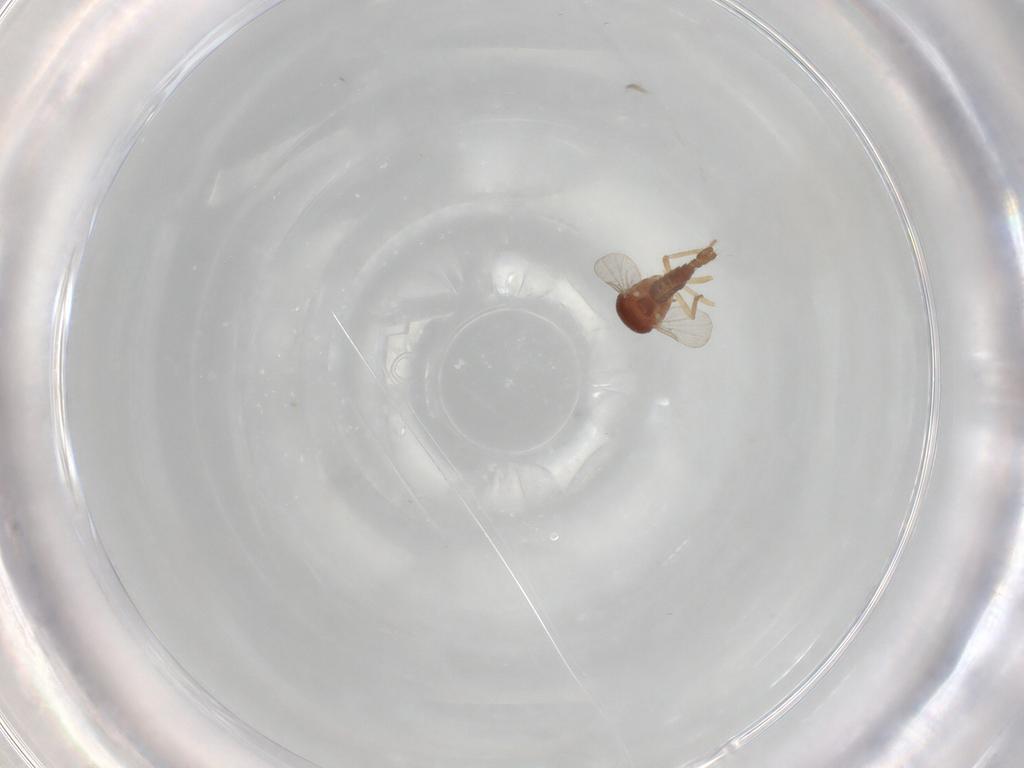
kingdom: Animalia
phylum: Arthropoda
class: Insecta
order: Diptera
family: Ceratopogonidae
